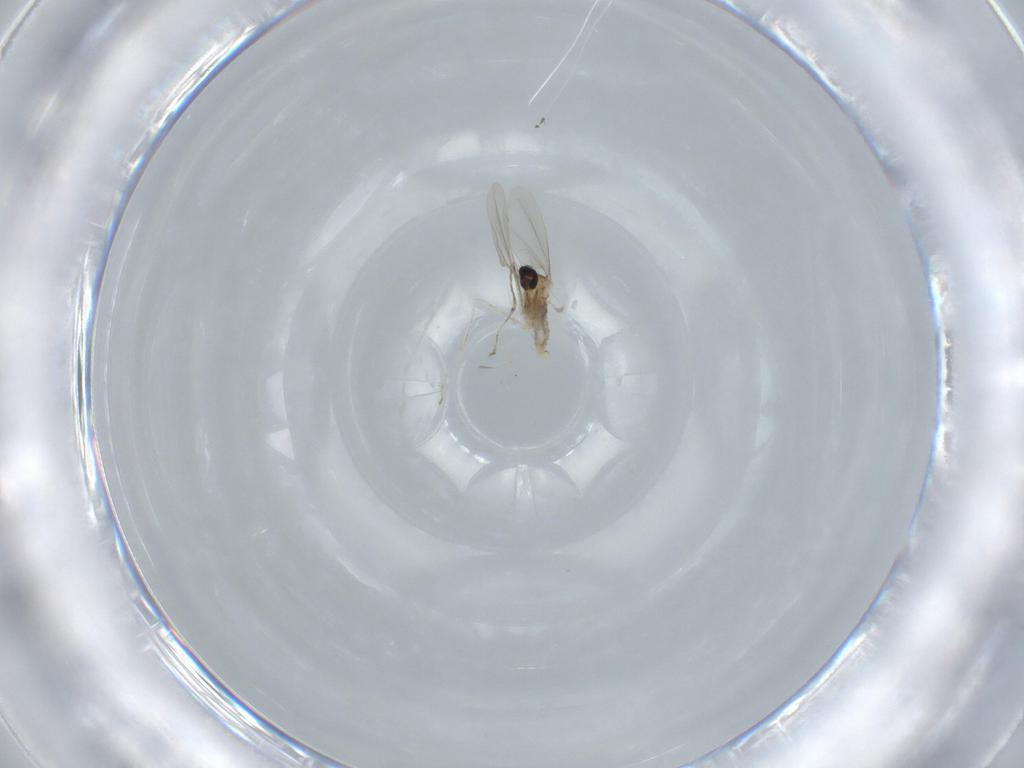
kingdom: Animalia
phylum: Arthropoda
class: Insecta
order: Diptera
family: Cecidomyiidae
